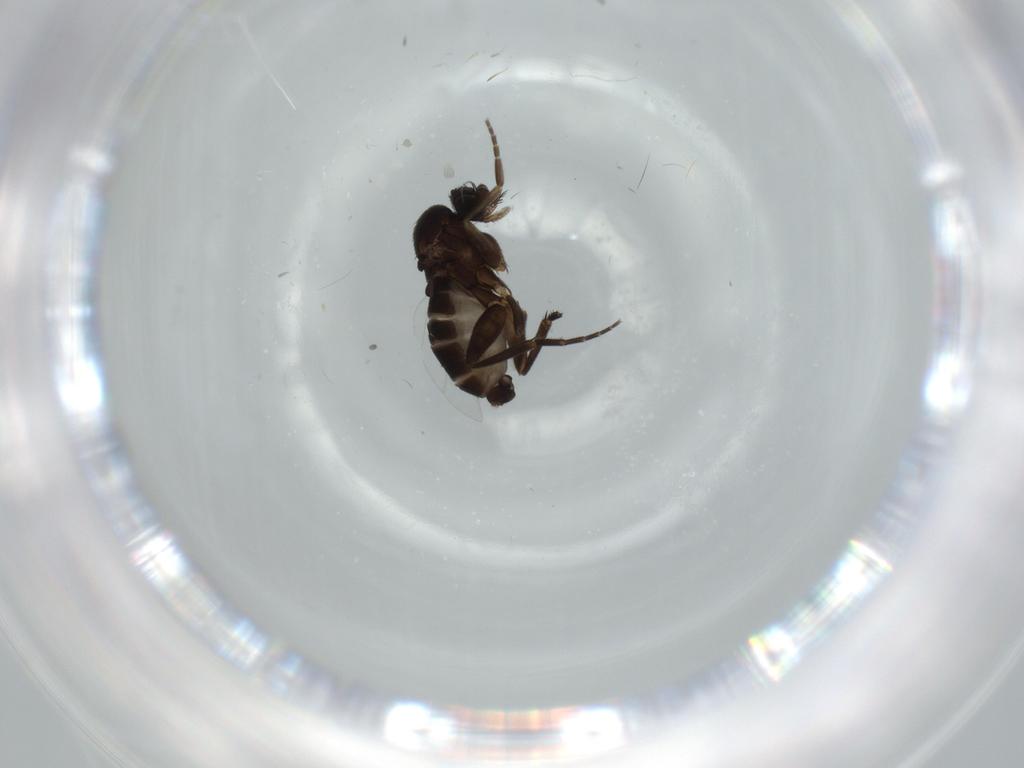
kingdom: Animalia
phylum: Arthropoda
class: Insecta
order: Diptera
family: Phoridae
